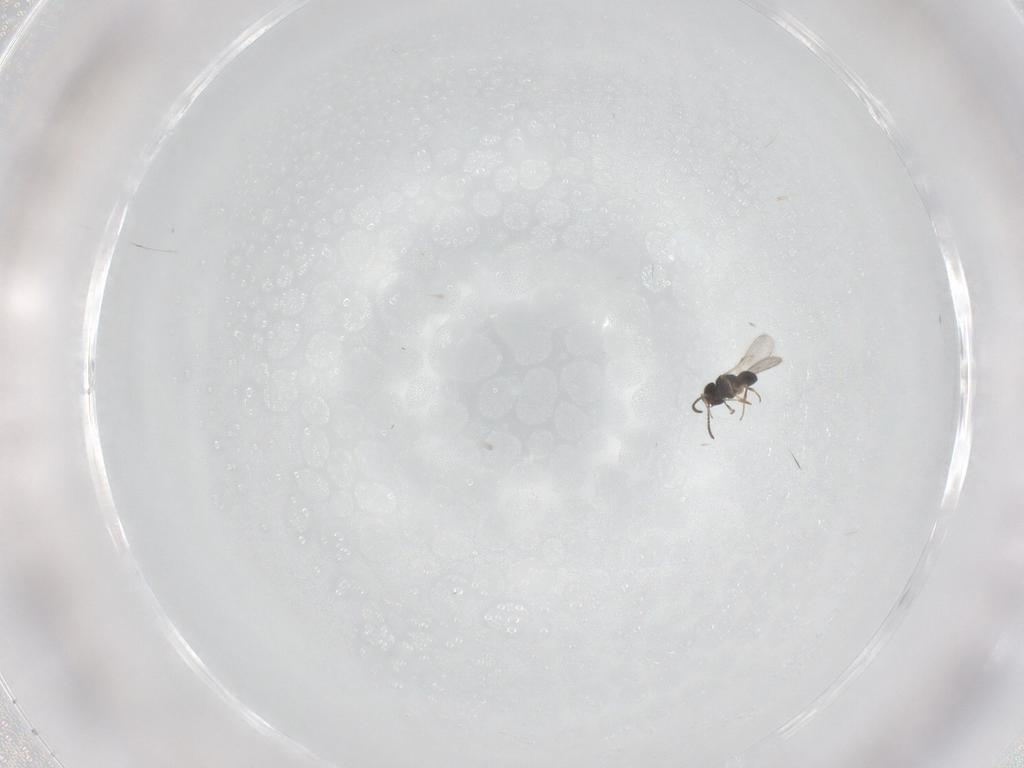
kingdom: Animalia
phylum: Arthropoda
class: Insecta
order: Hymenoptera
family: Scelionidae
